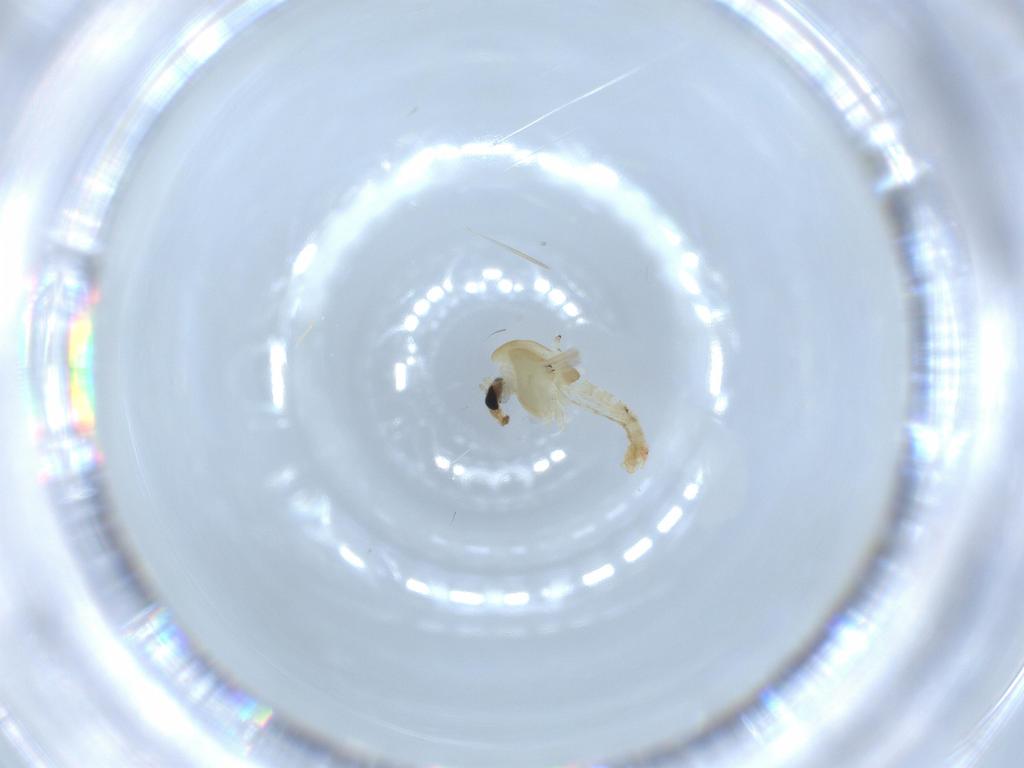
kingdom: Animalia
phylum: Arthropoda
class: Insecta
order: Diptera
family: Chironomidae
